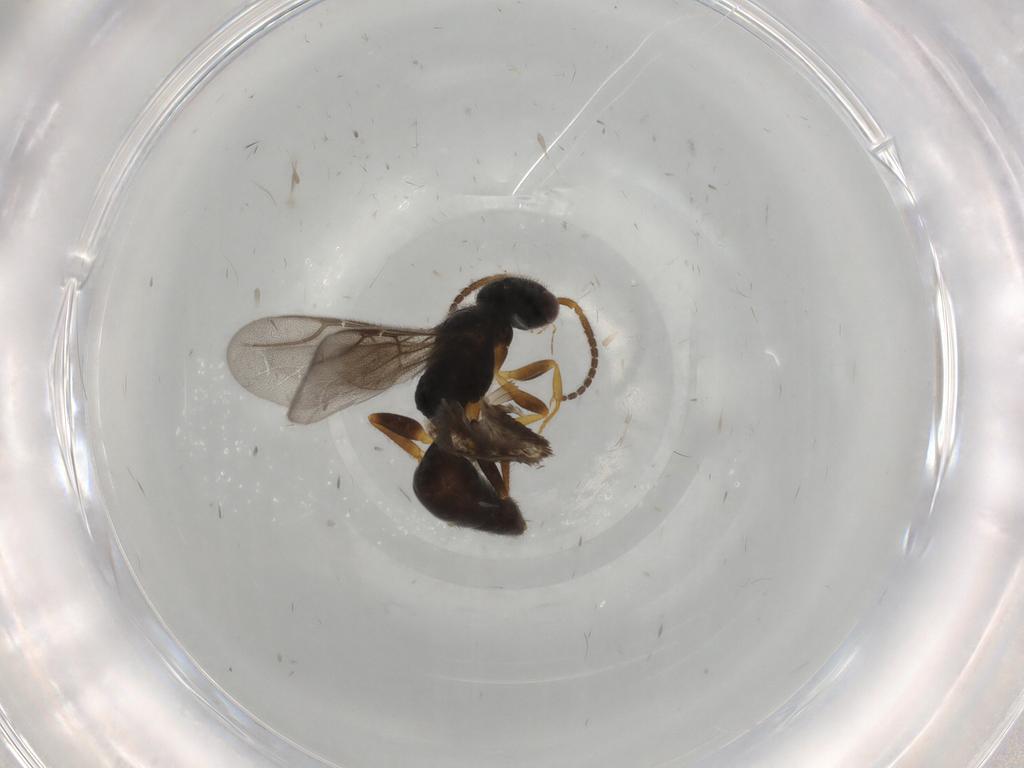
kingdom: Animalia
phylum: Arthropoda
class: Insecta
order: Hymenoptera
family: Bethylidae
